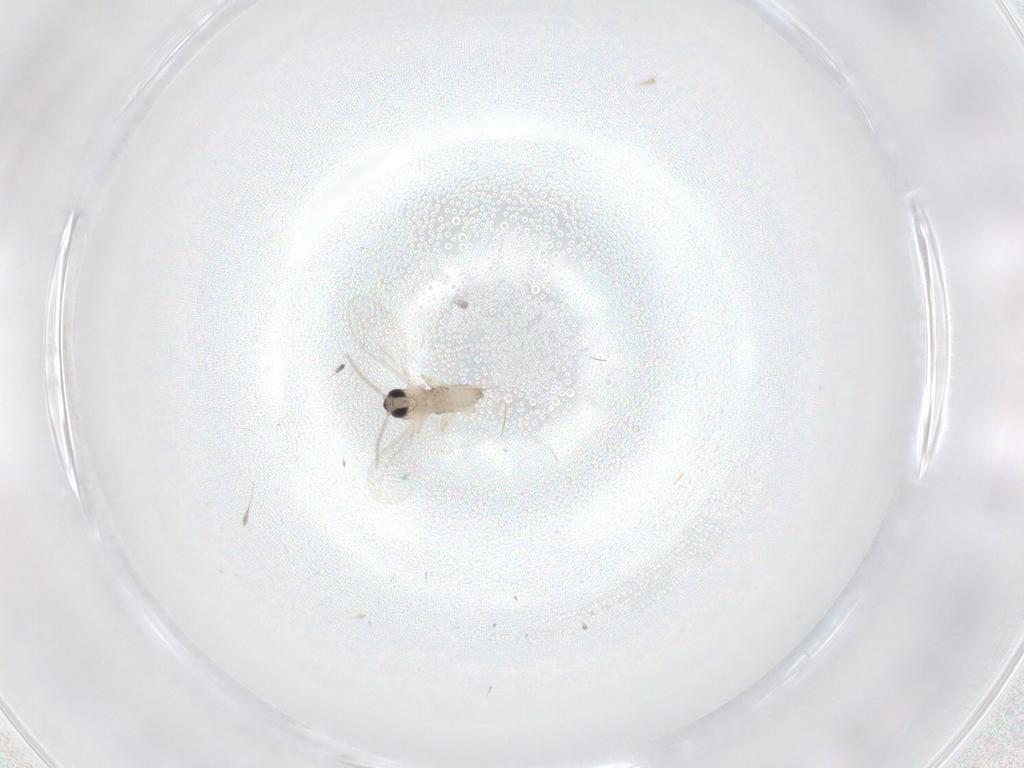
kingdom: Animalia
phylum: Arthropoda
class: Insecta
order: Diptera
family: Cecidomyiidae
